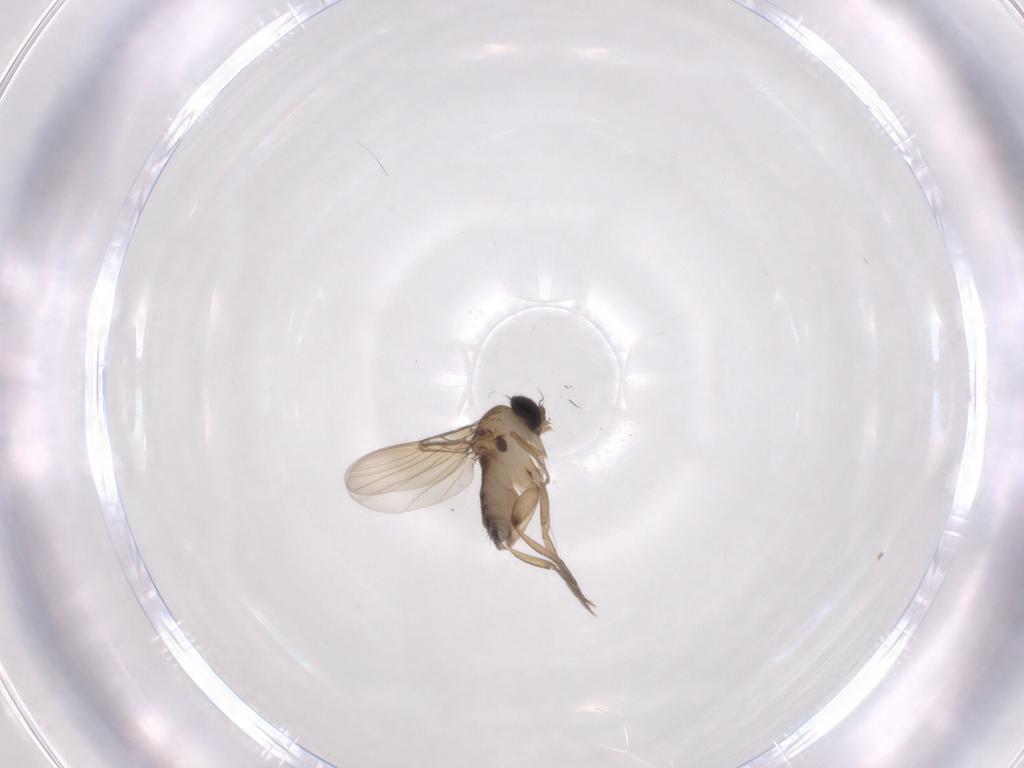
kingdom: Animalia
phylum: Arthropoda
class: Insecta
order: Diptera
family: Phoridae
